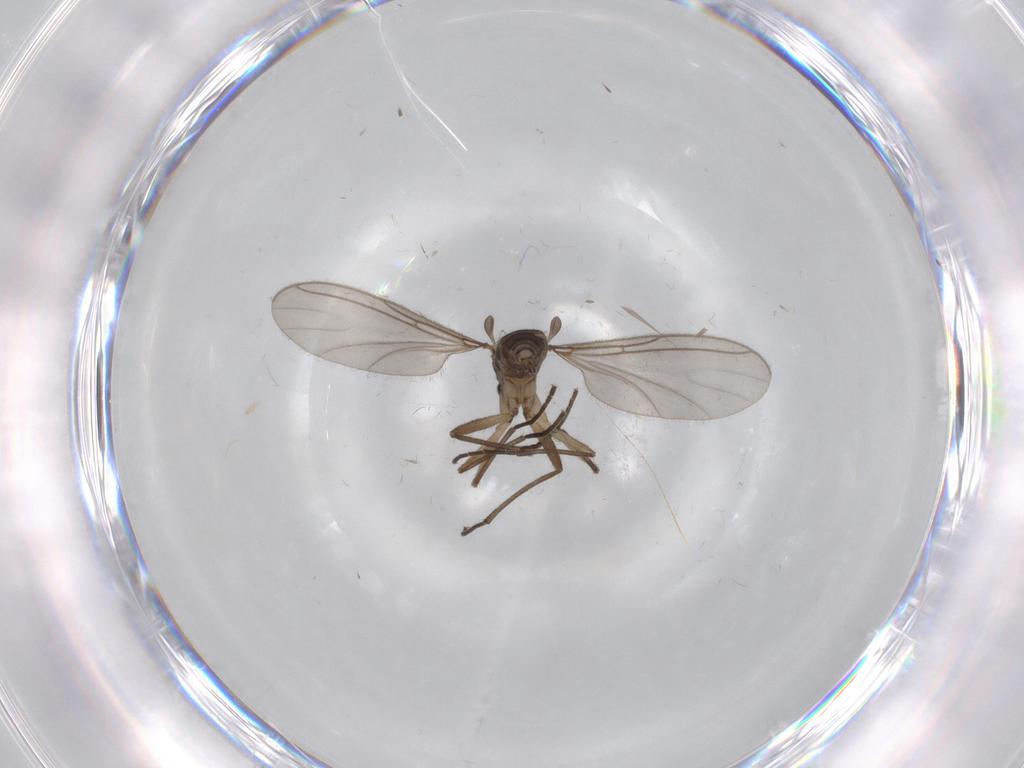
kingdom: Animalia
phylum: Arthropoda
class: Insecta
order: Diptera
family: Sciaridae
